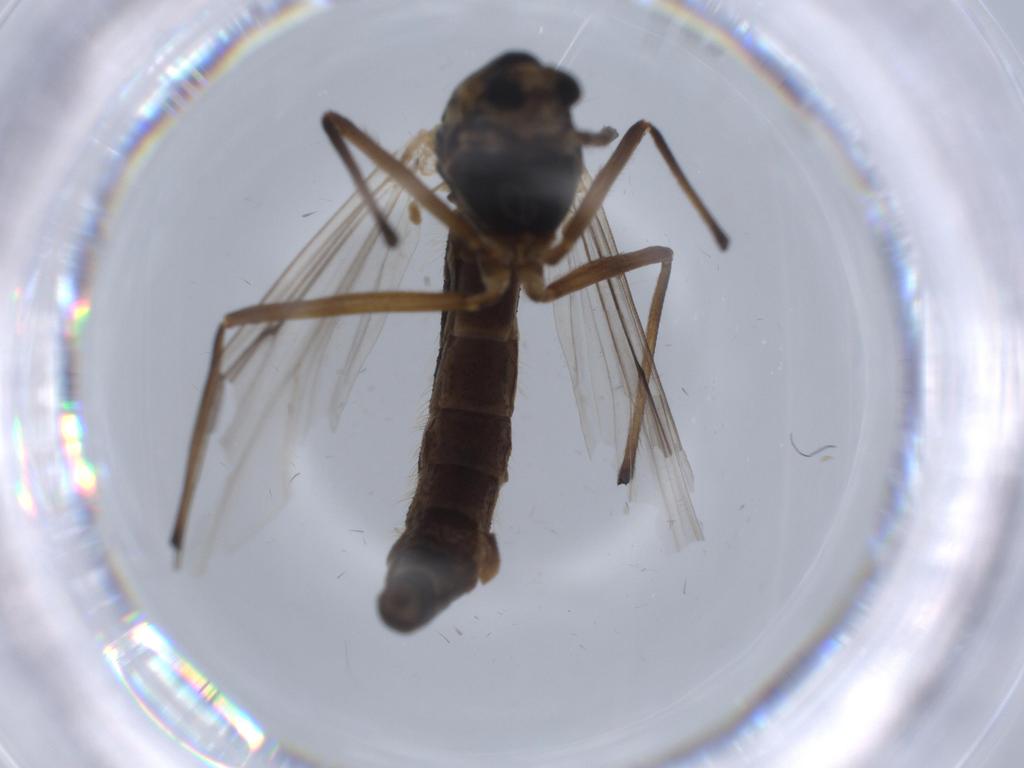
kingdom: Animalia
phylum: Arthropoda
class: Insecta
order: Diptera
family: Chironomidae
